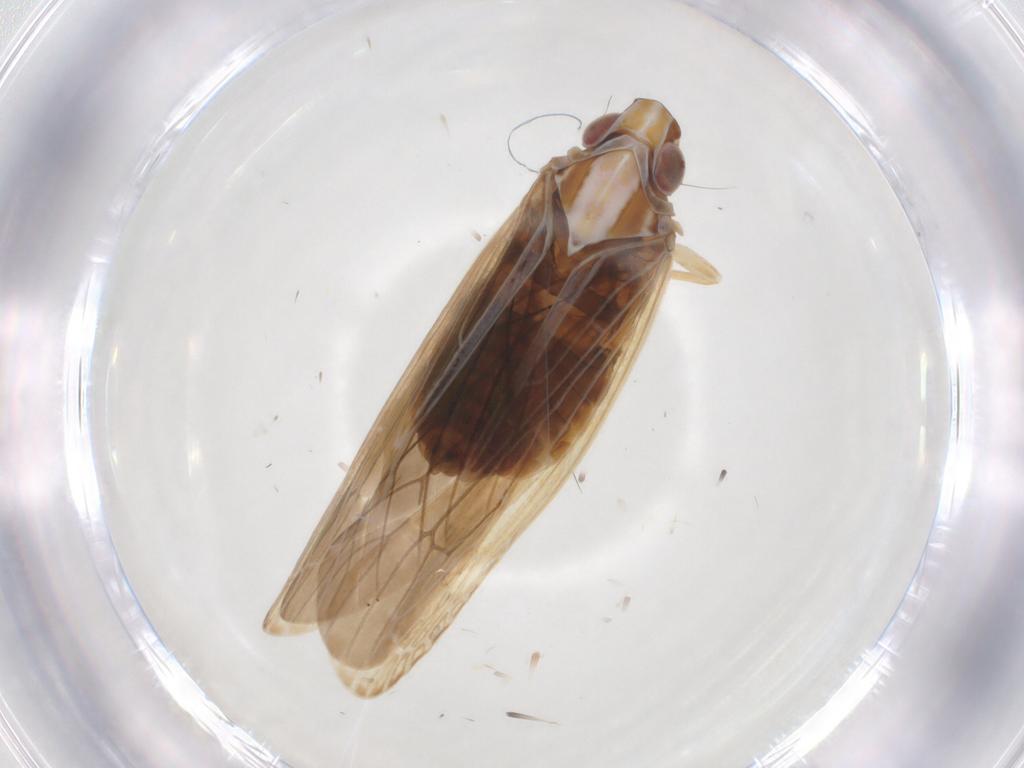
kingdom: Animalia
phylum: Arthropoda
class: Insecta
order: Hemiptera
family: Achilidae
